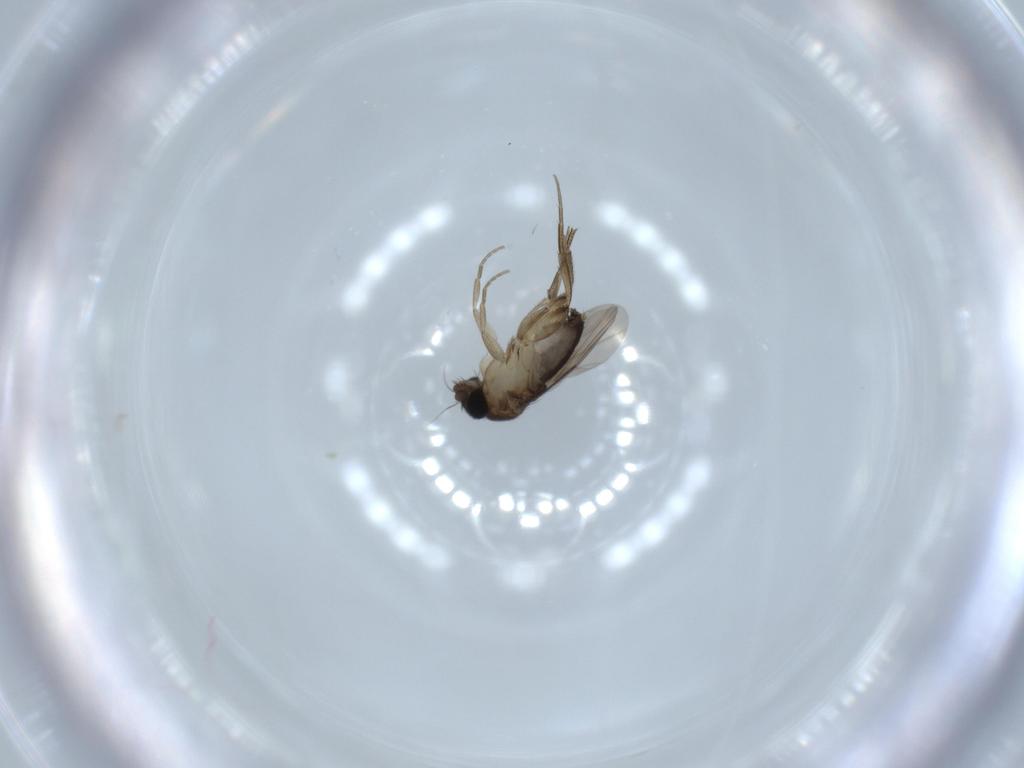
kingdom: Animalia
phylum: Arthropoda
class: Insecta
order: Diptera
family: Phoridae
